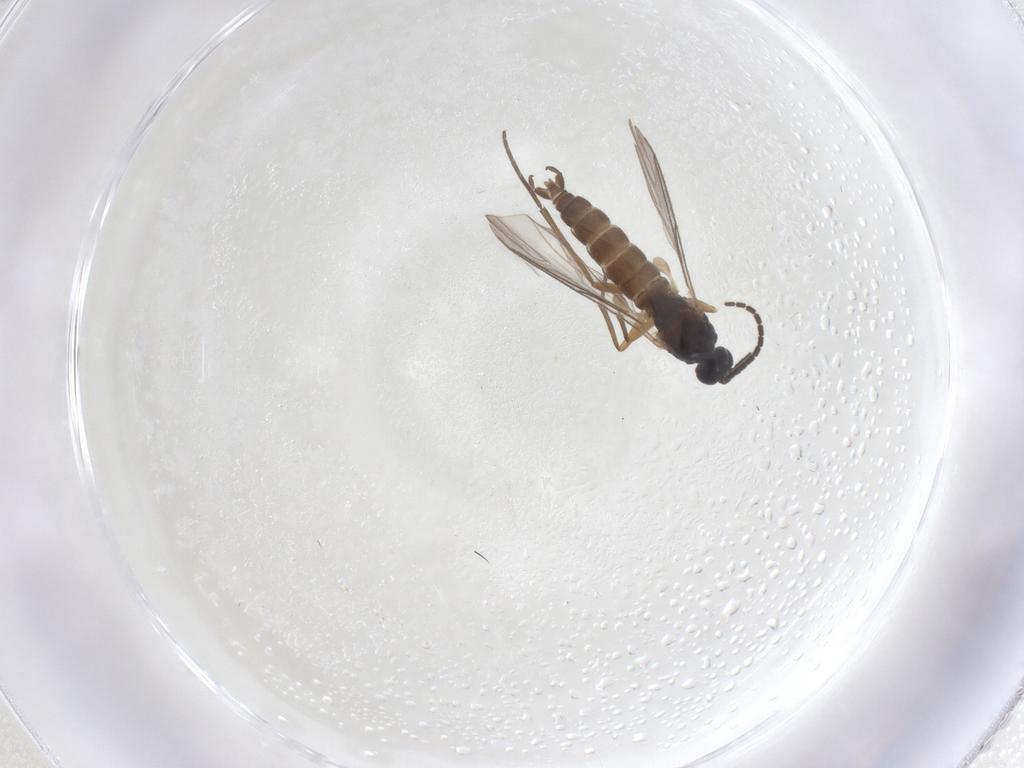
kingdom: Animalia
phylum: Arthropoda
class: Insecta
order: Diptera
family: Sciaridae
